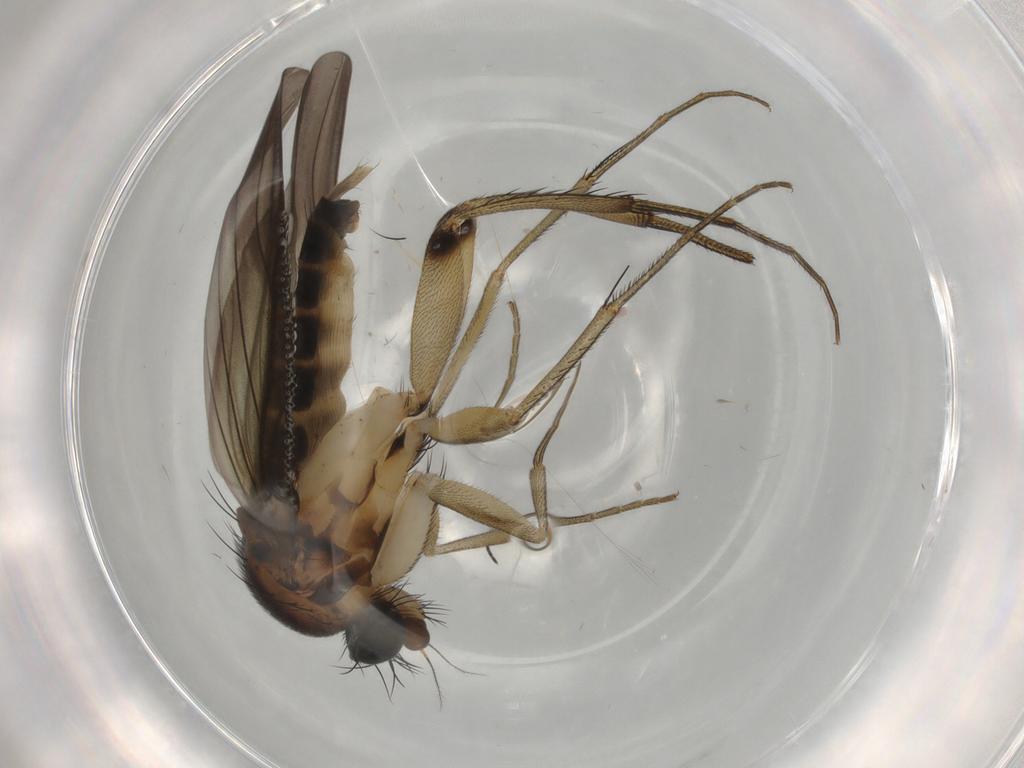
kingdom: Animalia
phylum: Arthropoda
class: Insecta
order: Diptera
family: Phoridae
